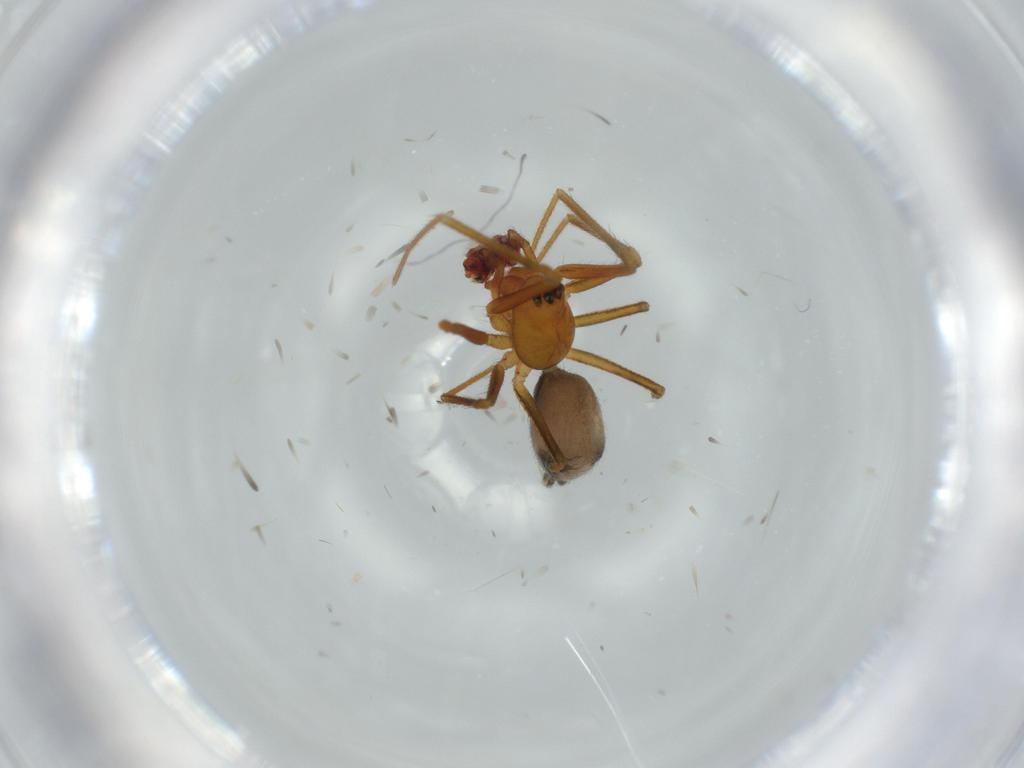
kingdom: Animalia
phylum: Arthropoda
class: Arachnida
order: Araneae
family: Linyphiidae
